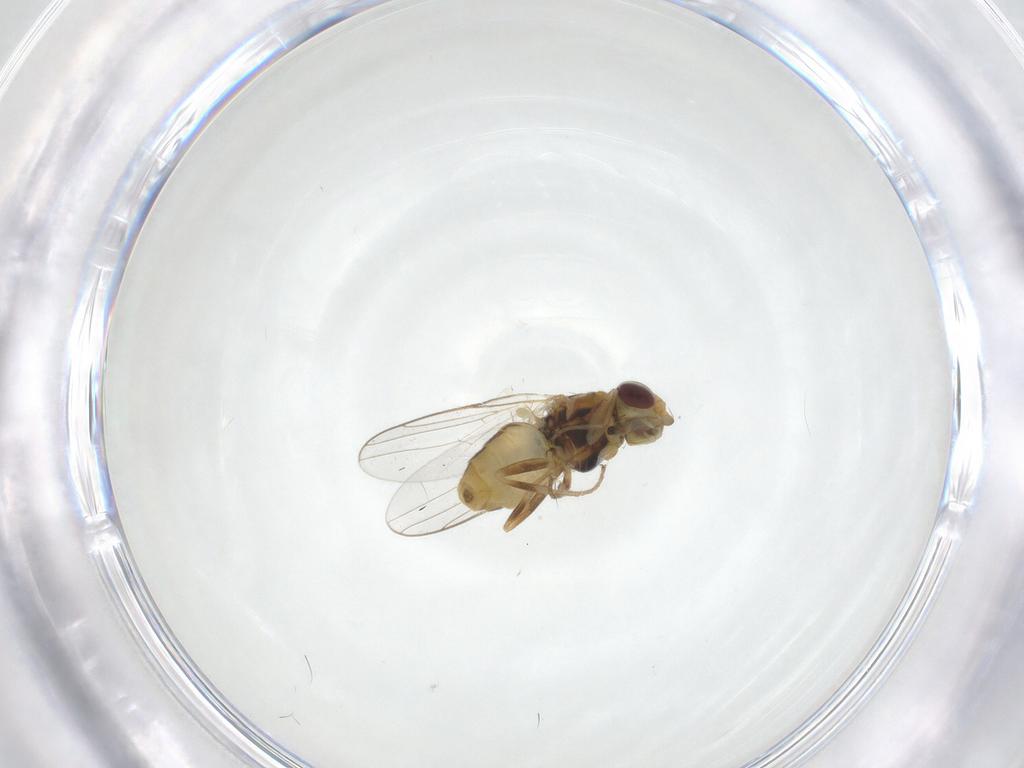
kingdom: Animalia
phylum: Arthropoda
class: Insecta
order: Diptera
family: Chloropidae
